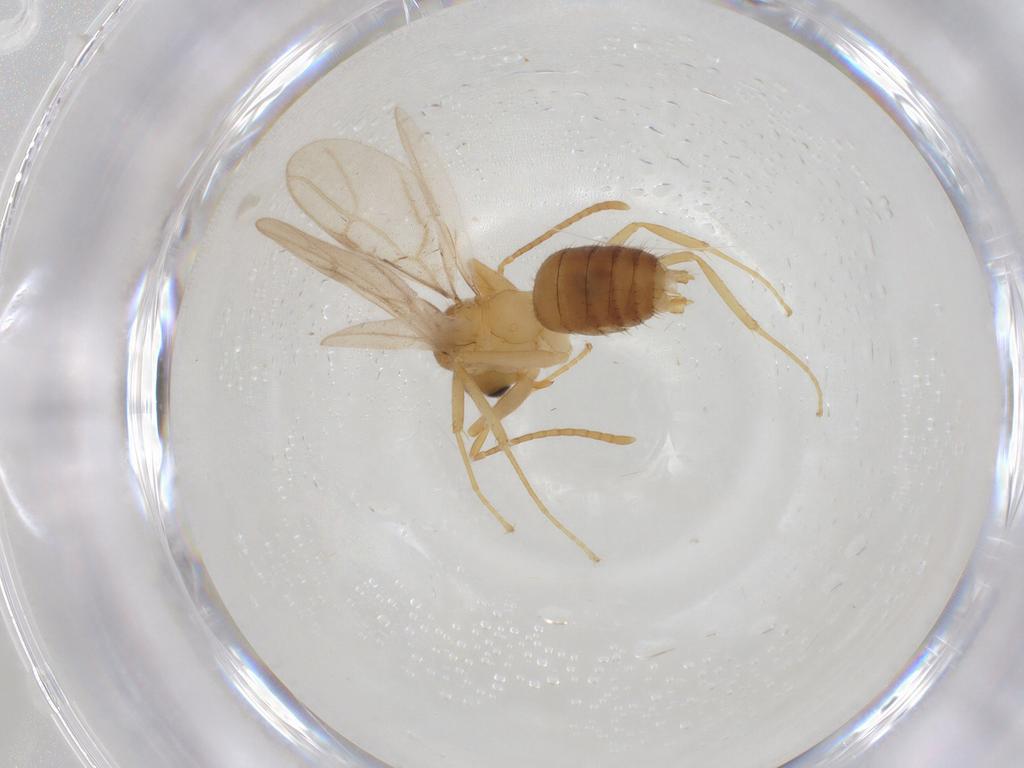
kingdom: Animalia
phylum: Arthropoda
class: Insecta
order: Hymenoptera
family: Formicidae
